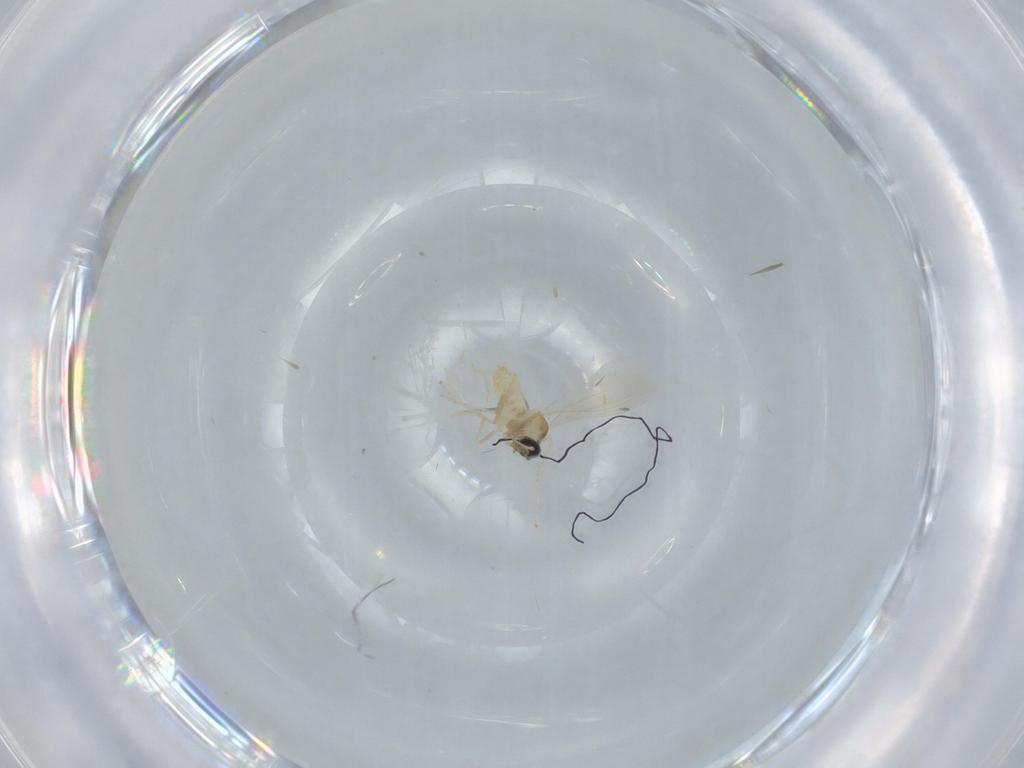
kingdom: Animalia
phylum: Arthropoda
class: Insecta
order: Diptera
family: Cecidomyiidae
